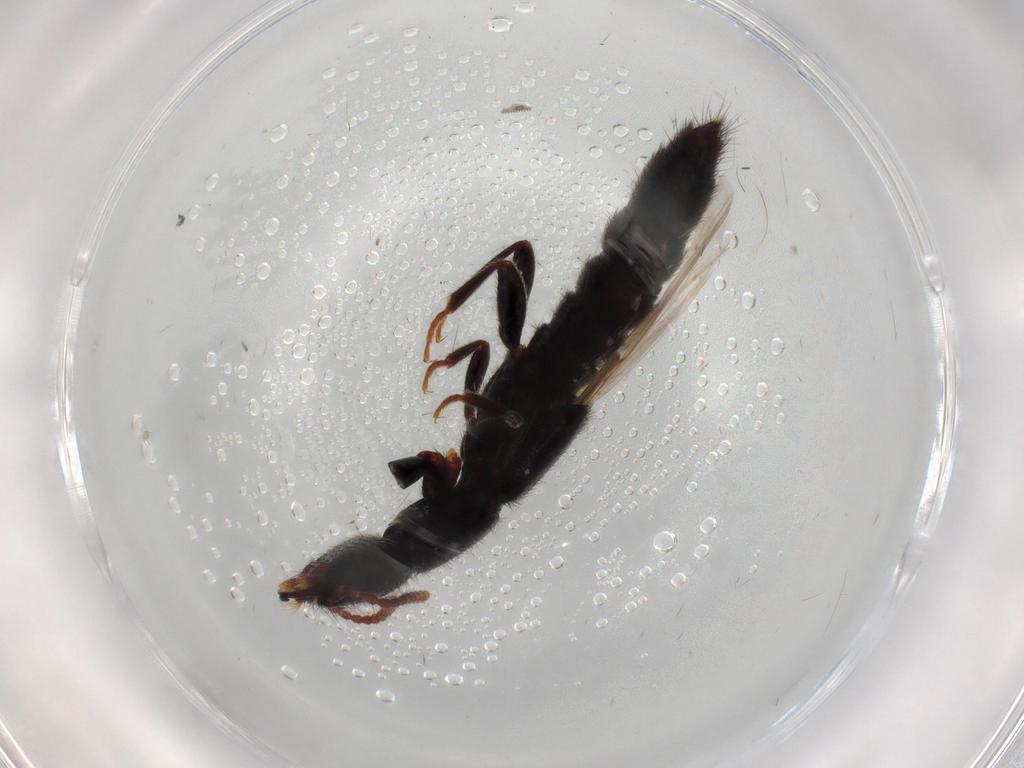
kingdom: Animalia
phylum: Arthropoda
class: Insecta
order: Coleoptera
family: Staphylinidae
